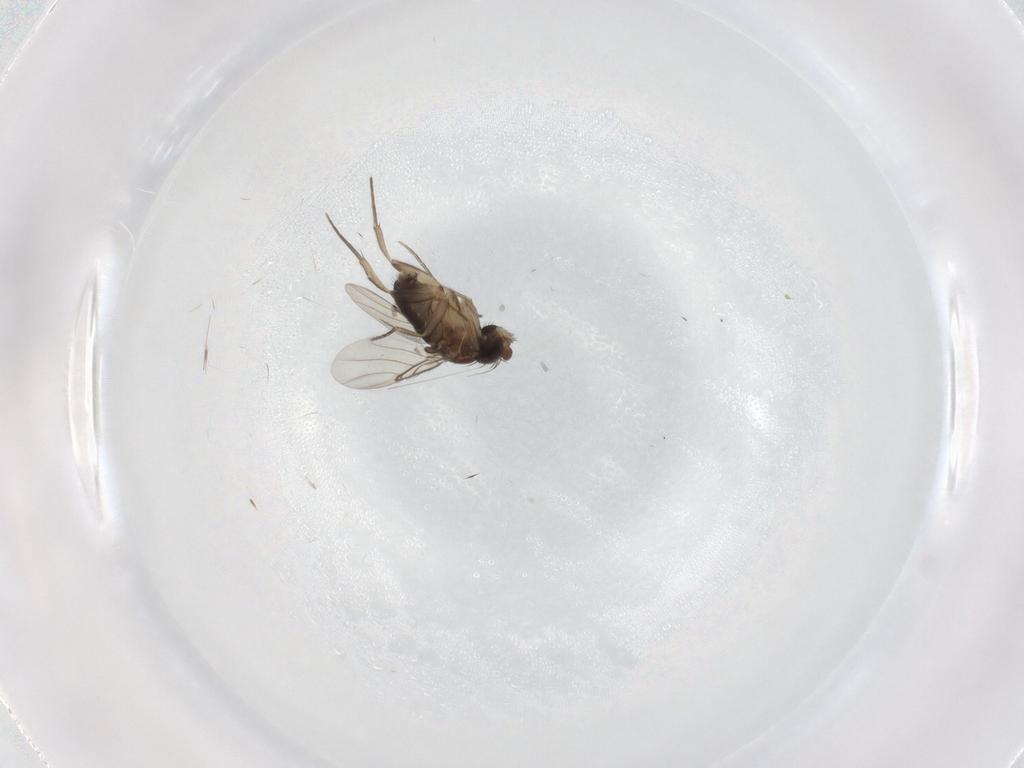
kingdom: Animalia
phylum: Arthropoda
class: Insecta
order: Diptera
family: Phoridae
